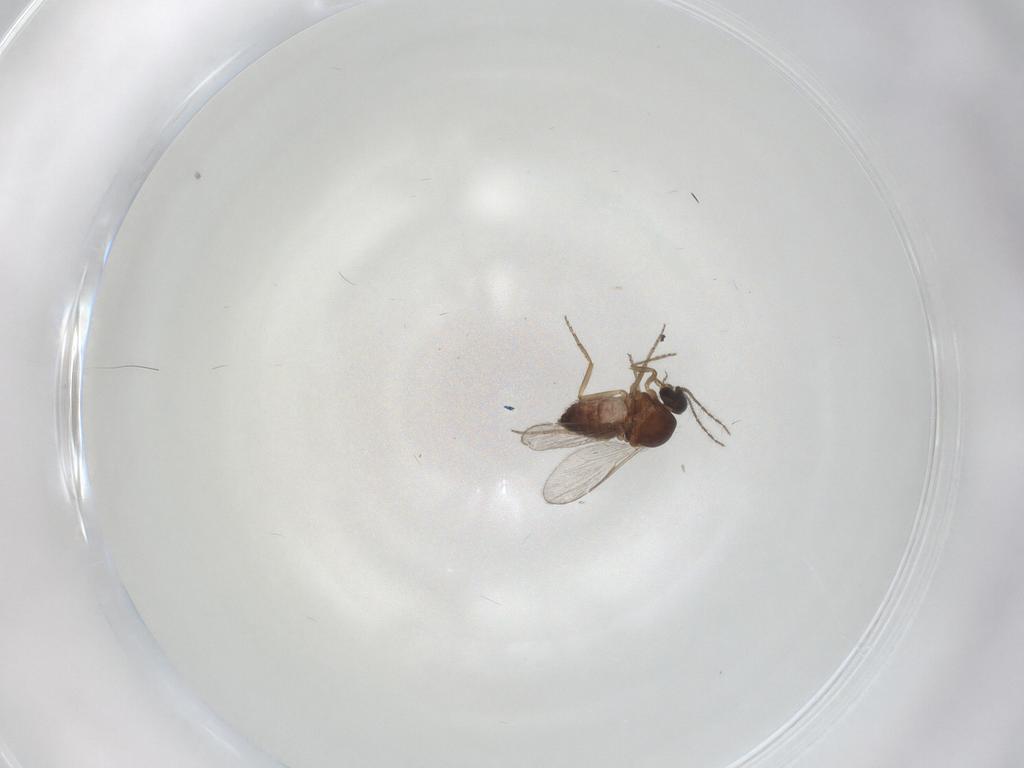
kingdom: Animalia
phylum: Arthropoda
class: Insecta
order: Diptera
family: Ceratopogonidae
